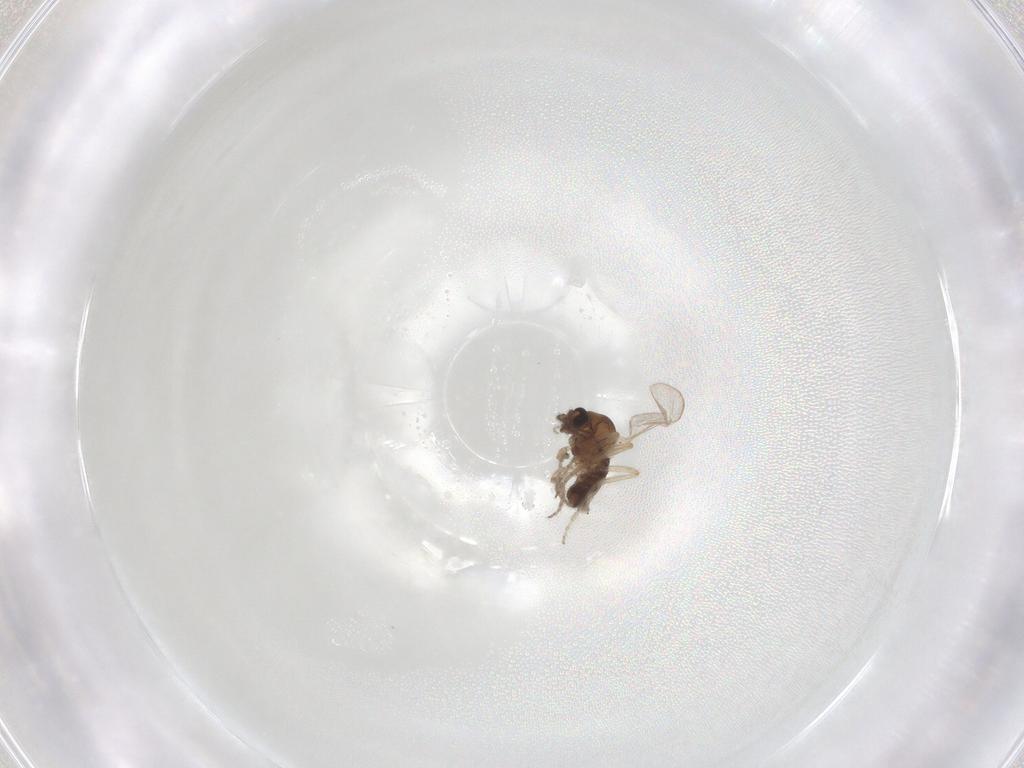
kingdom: Animalia
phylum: Arthropoda
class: Insecta
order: Diptera
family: Ceratopogonidae
